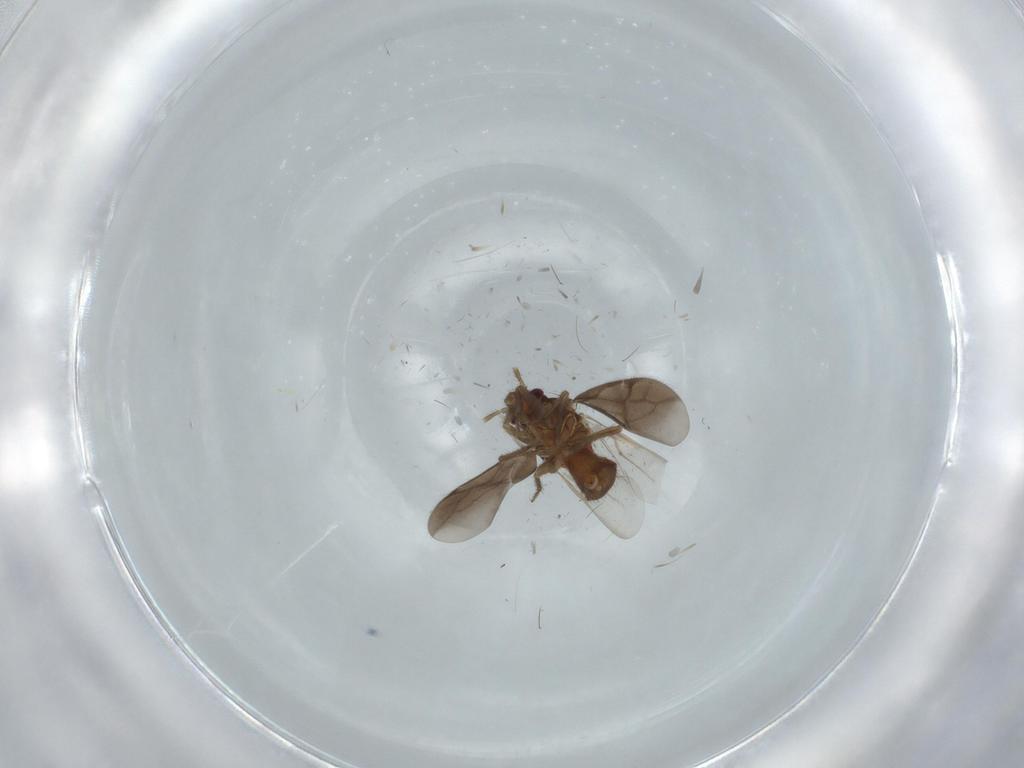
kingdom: Animalia
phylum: Arthropoda
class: Insecta
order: Hemiptera
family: Ceratocombidae
